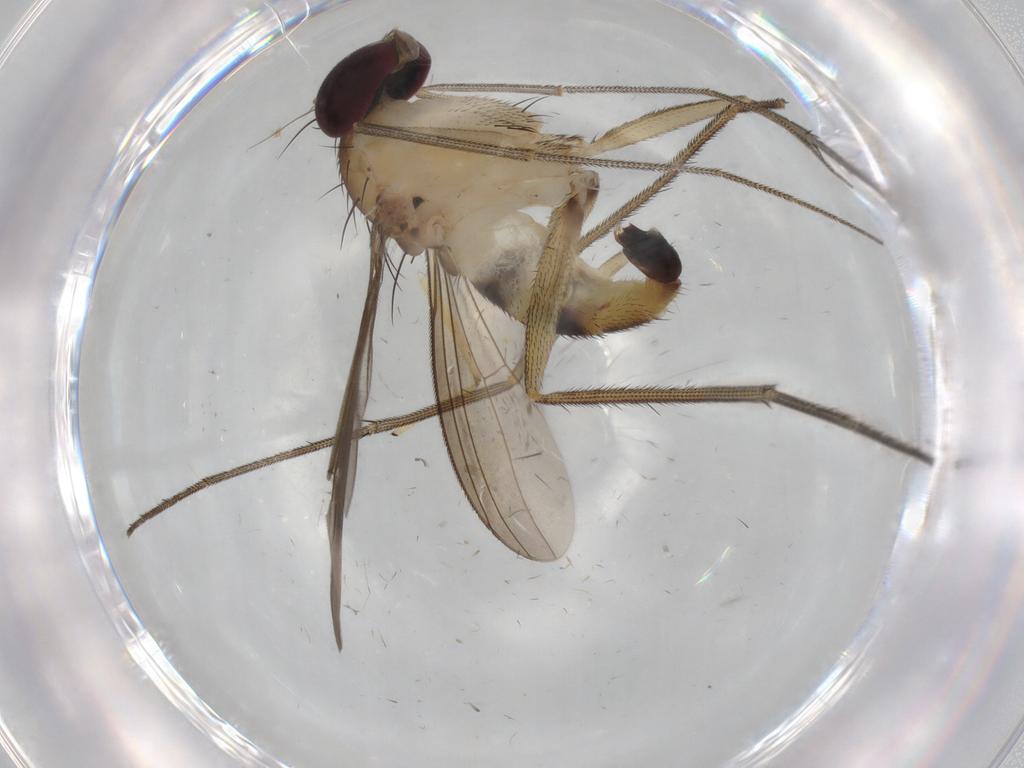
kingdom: Animalia
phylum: Arthropoda
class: Insecta
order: Diptera
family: Dolichopodidae
